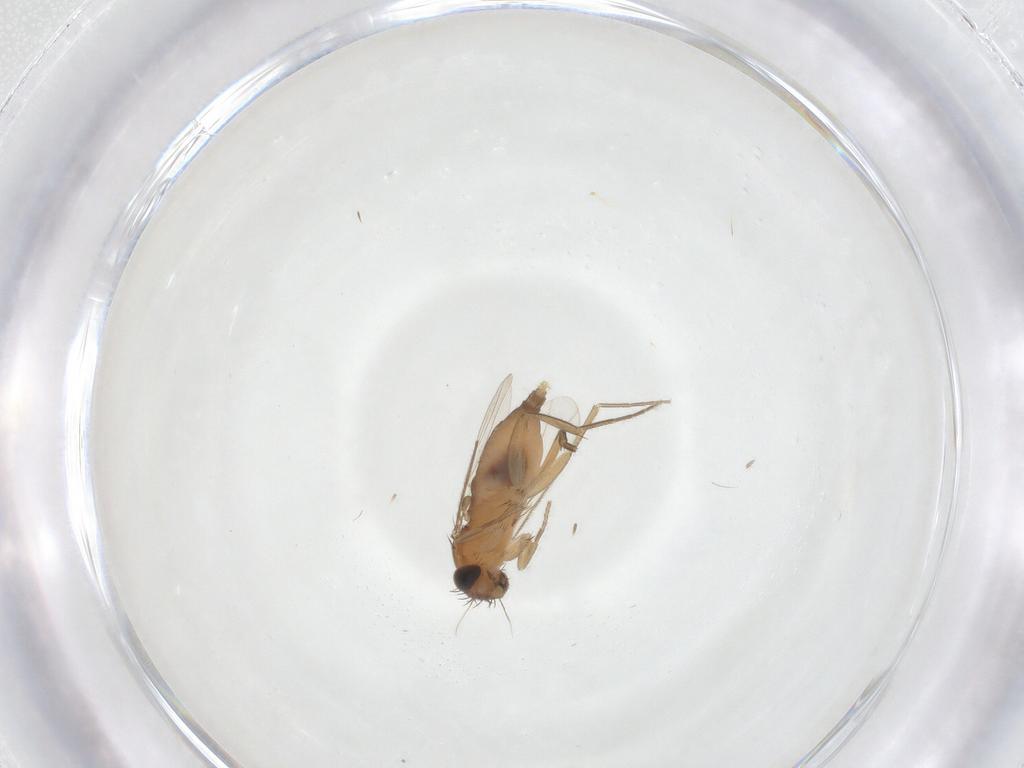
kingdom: Animalia
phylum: Arthropoda
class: Insecta
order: Diptera
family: Phoridae
